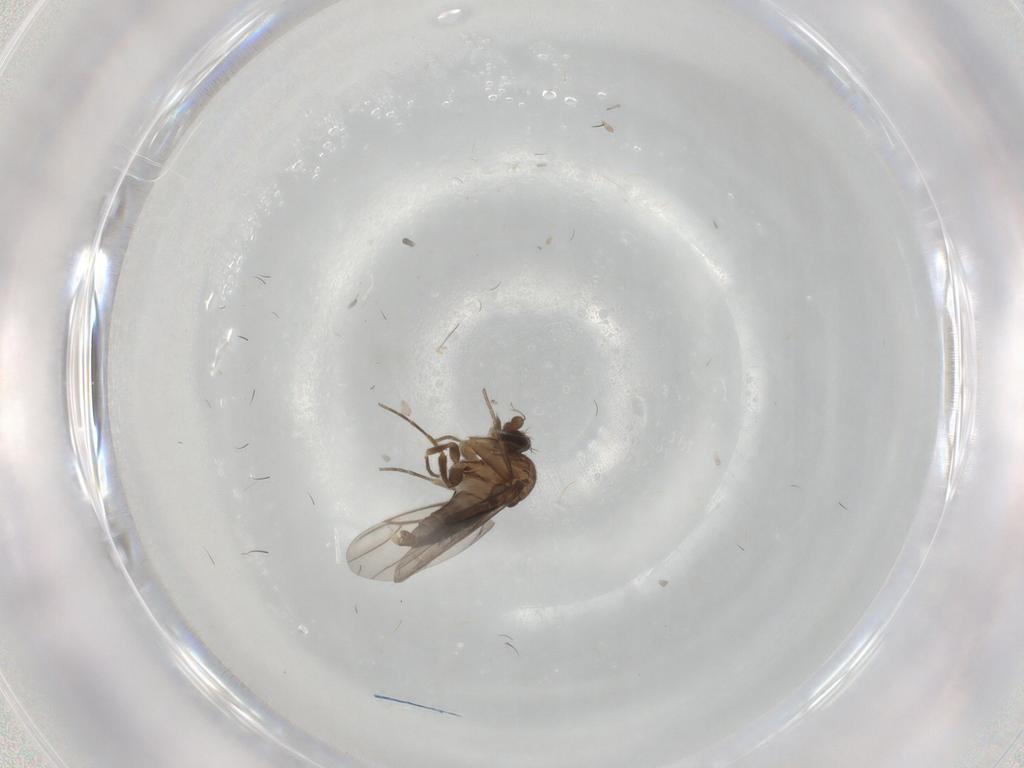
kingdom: Animalia
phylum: Arthropoda
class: Insecta
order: Diptera
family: Chironomidae
